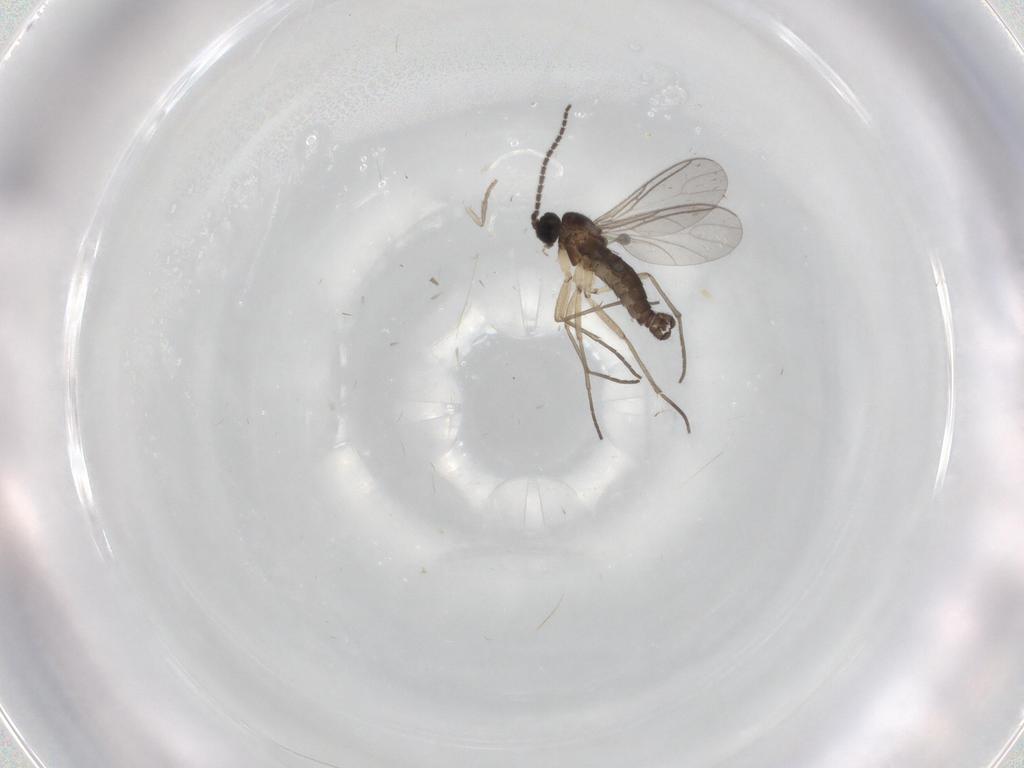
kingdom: Animalia
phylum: Arthropoda
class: Insecta
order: Diptera
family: Sciaridae
